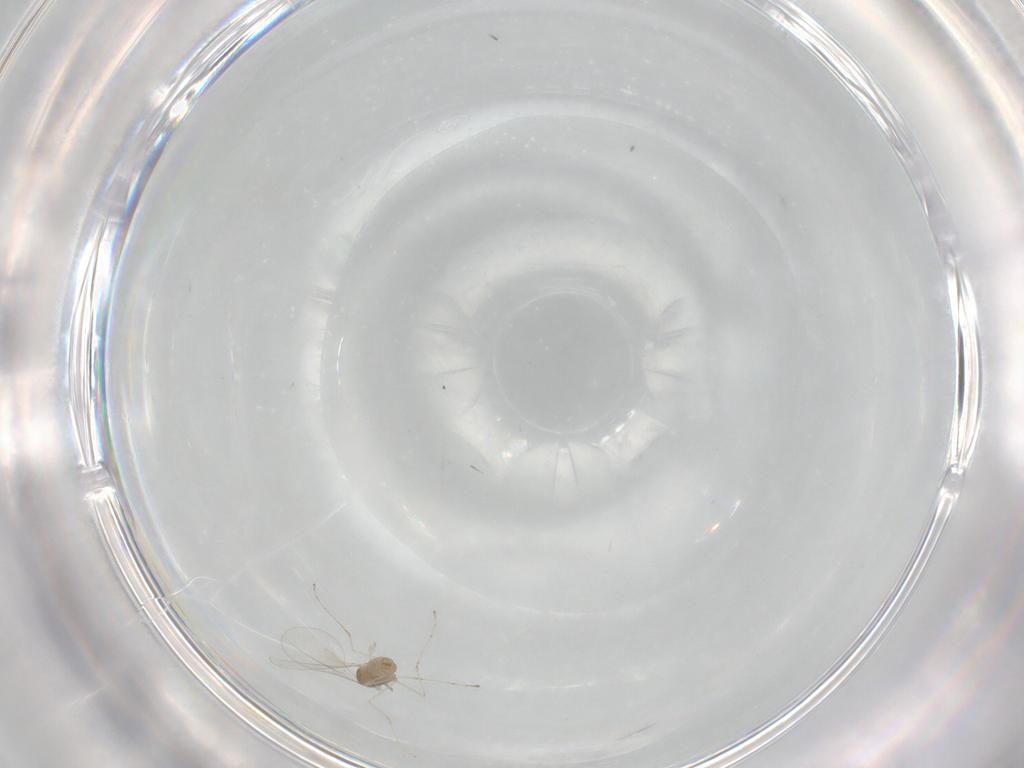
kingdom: Animalia
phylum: Arthropoda
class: Insecta
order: Diptera
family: Cecidomyiidae
